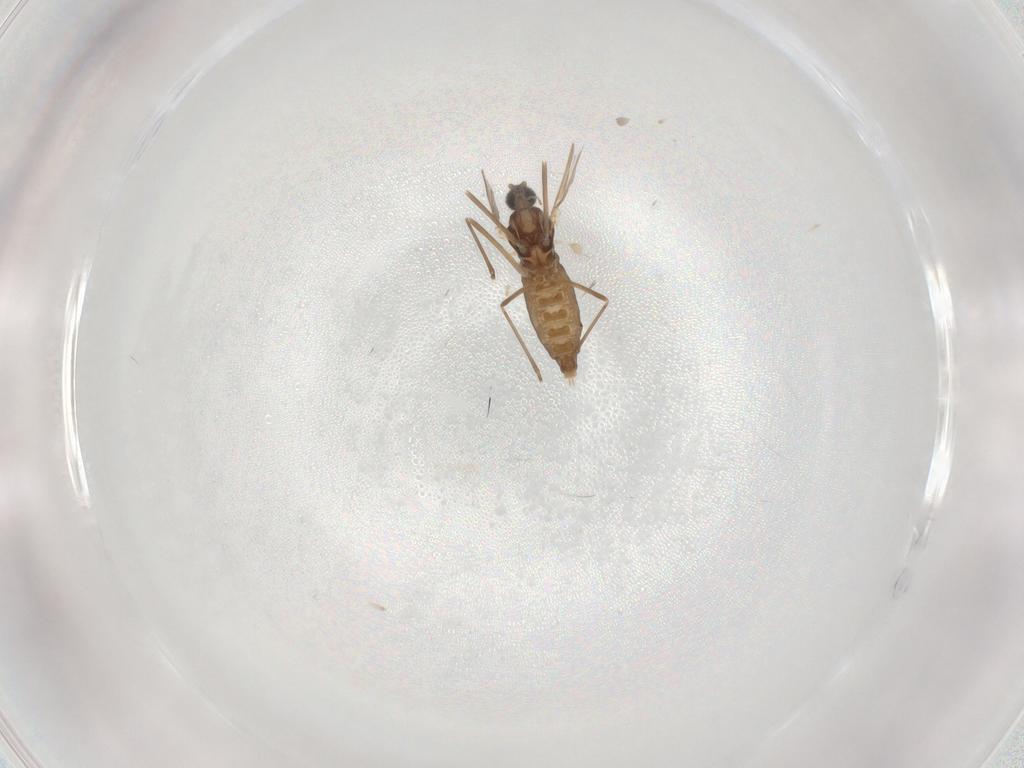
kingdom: Animalia
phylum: Arthropoda
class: Insecta
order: Diptera
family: Cecidomyiidae
